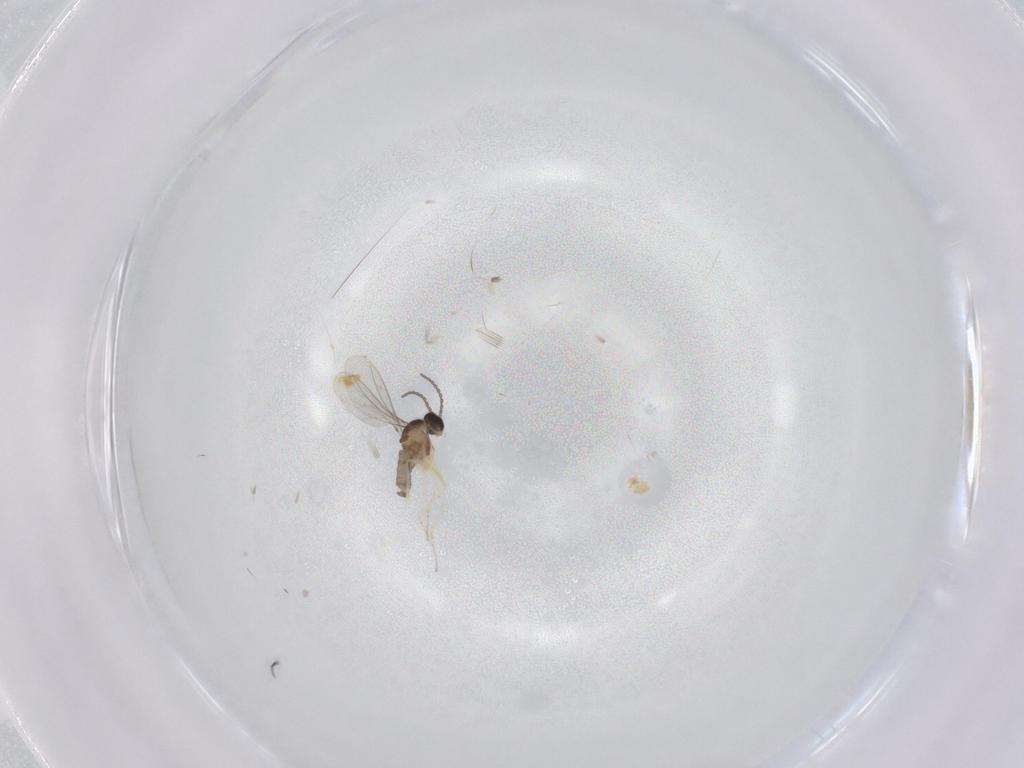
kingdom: Animalia
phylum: Arthropoda
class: Insecta
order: Diptera
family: Cecidomyiidae
